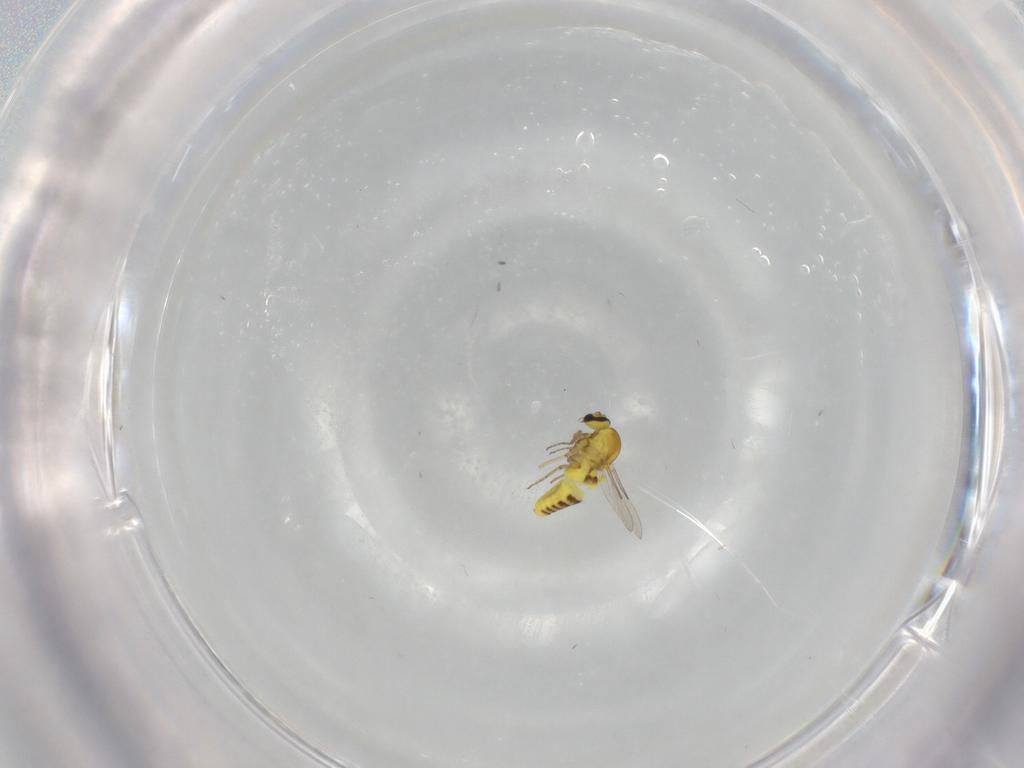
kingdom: Animalia
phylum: Arthropoda
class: Insecta
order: Diptera
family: Ceratopogonidae
